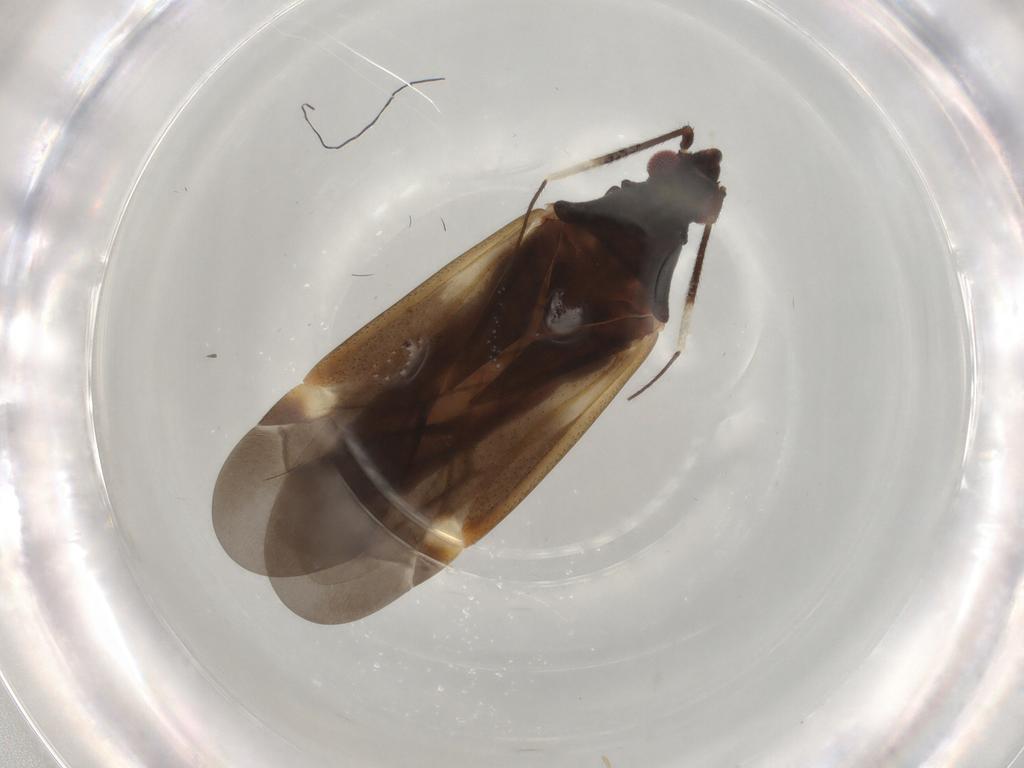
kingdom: Animalia
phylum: Arthropoda
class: Insecta
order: Hemiptera
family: Miridae
